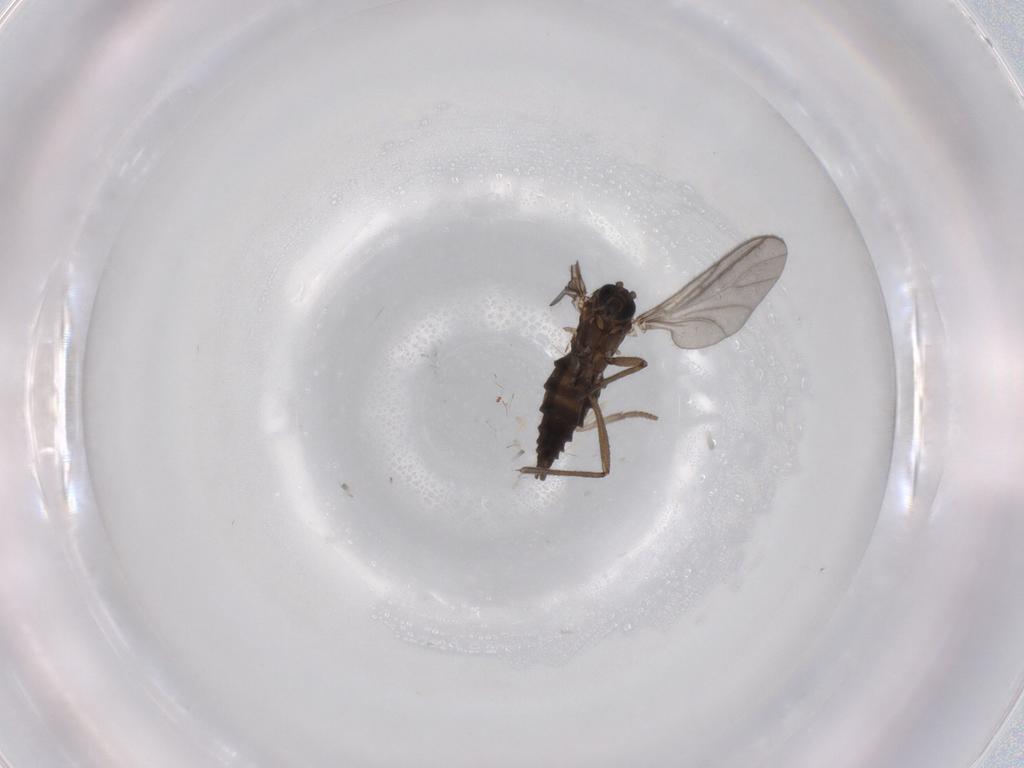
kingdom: Animalia
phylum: Arthropoda
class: Insecta
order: Diptera
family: Sciaridae
